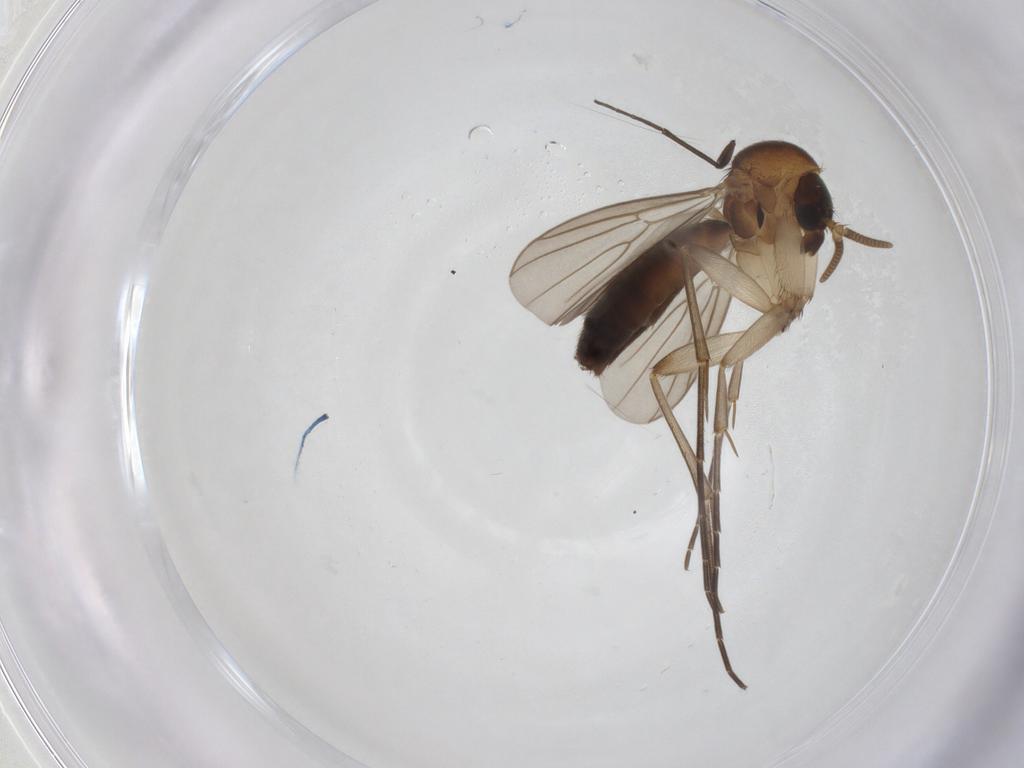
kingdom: Animalia
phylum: Arthropoda
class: Insecta
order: Diptera
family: Mycetophilidae
